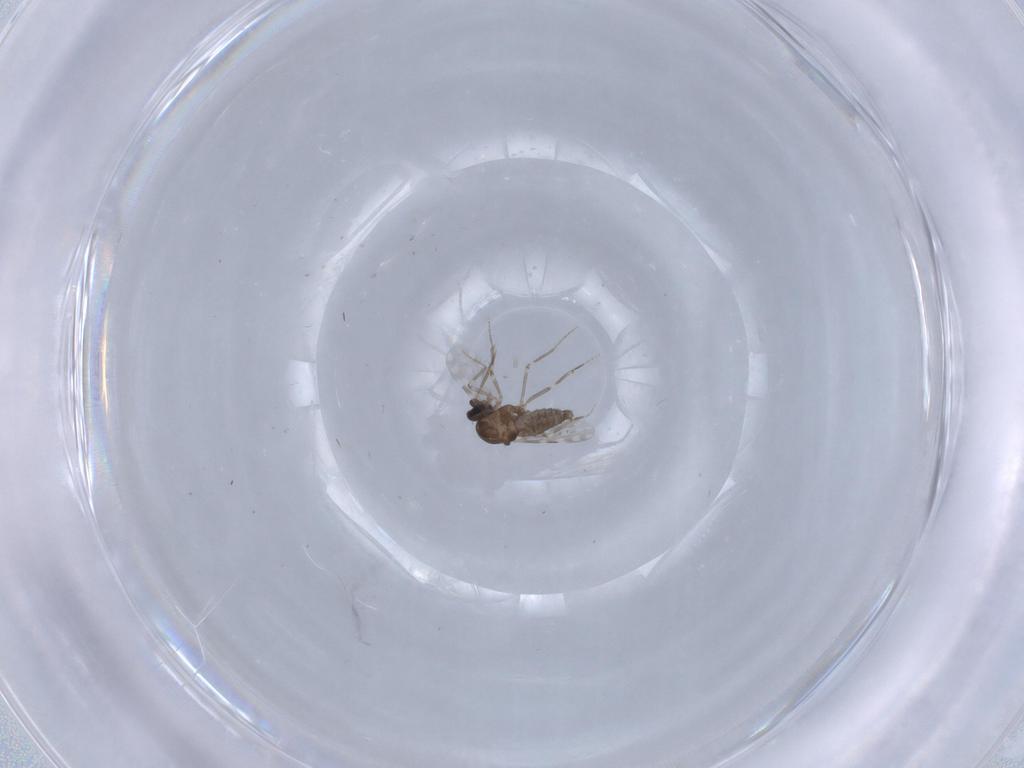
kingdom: Animalia
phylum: Arthropoda
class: Insecta
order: Diptera
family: Ceratopogonidae
